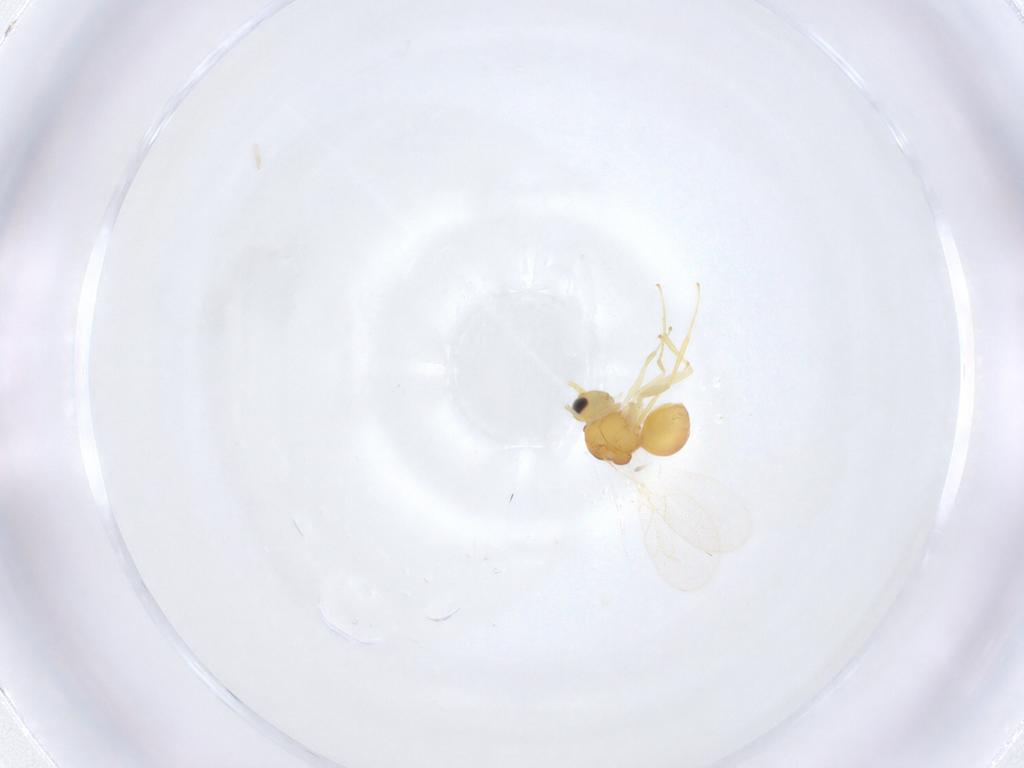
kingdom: Animalia
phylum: Arthropoda
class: Insecta
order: Hymenoptera
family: Halictidae
